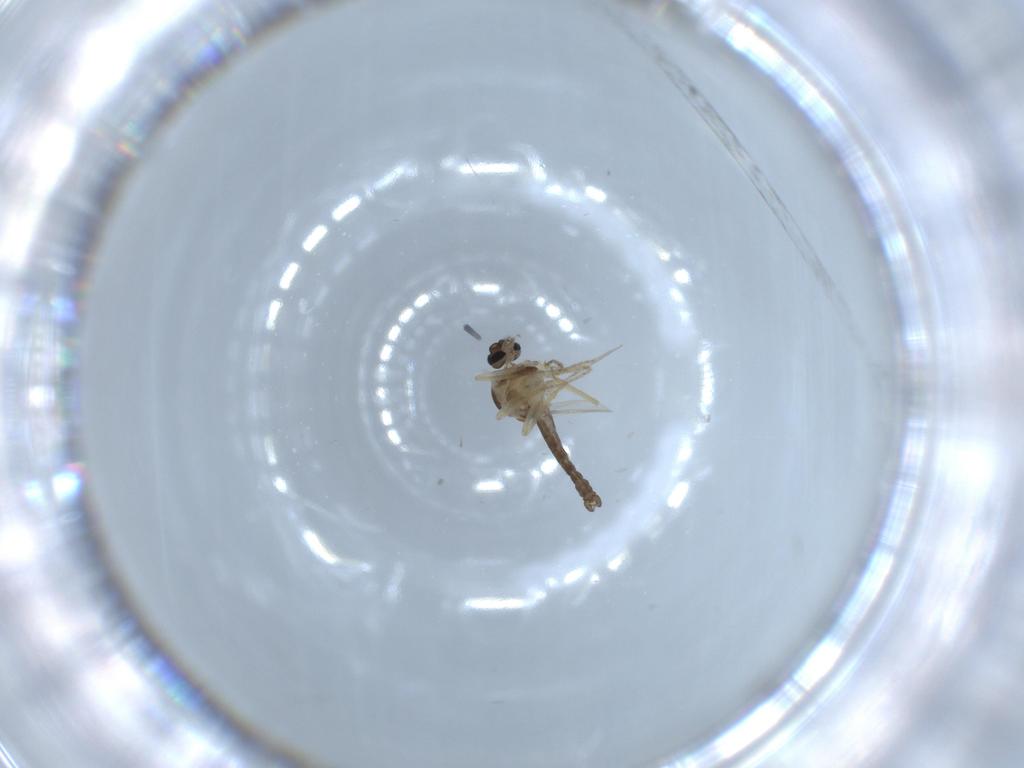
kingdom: Animalia
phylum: Arthropoda
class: Insecta
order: Diptera
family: Ceratopogonidae
